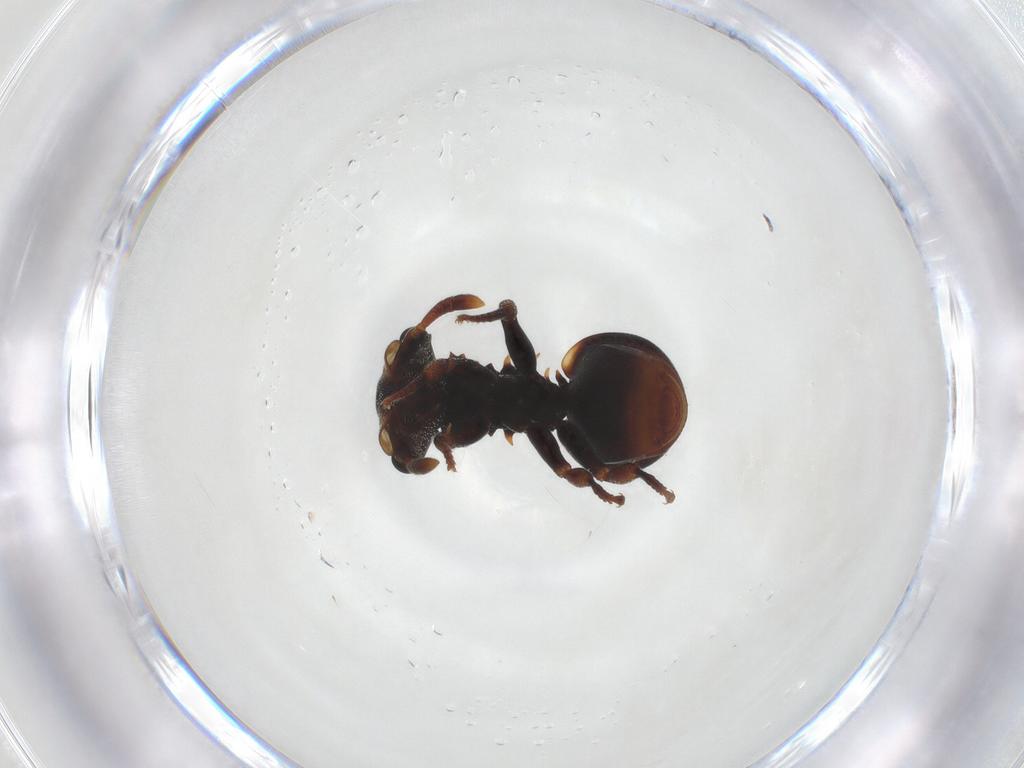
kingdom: Animalia
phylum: Arthropoda
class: Insecta
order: Hymenoptera
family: Formicidae
